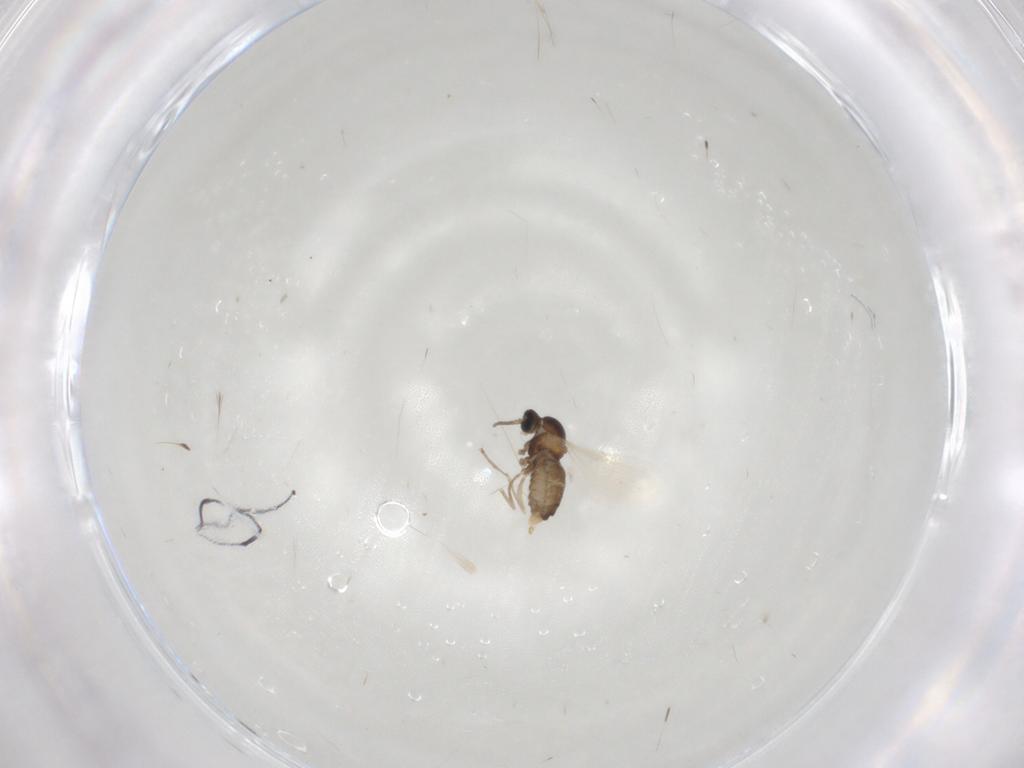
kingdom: Animalia
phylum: Arthropoda
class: Insecta
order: Diptera
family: Cecidomyiidae
